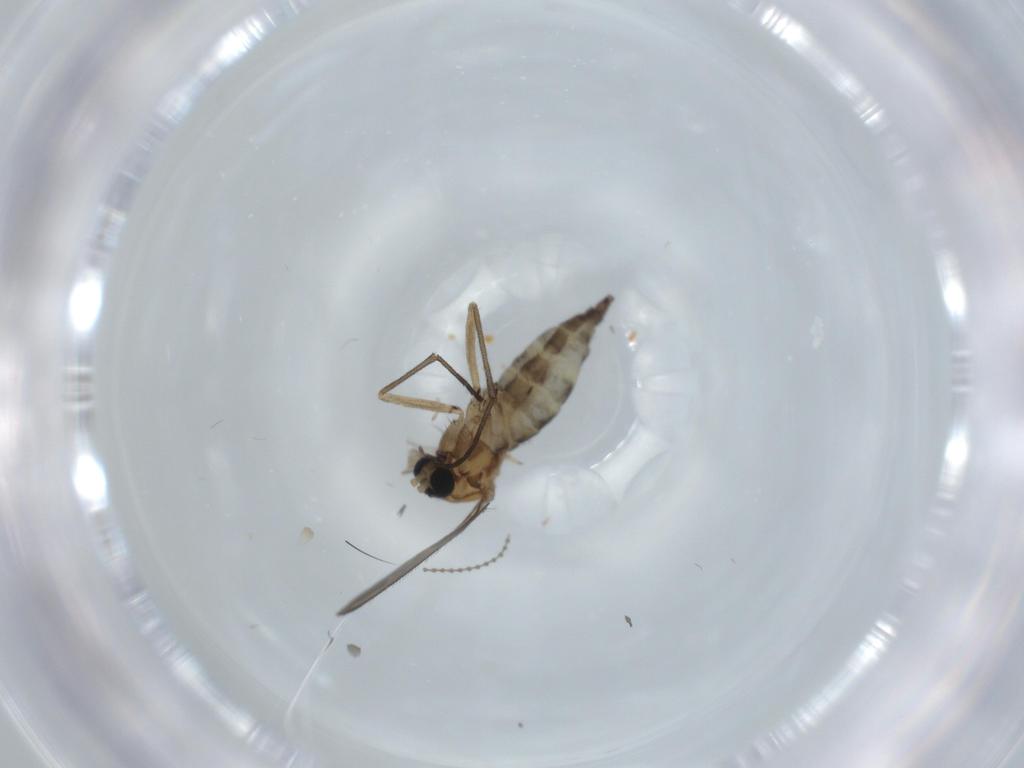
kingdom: Animalia
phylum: Arthropoda
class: Insecta
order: Diptera
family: Sciaridae
